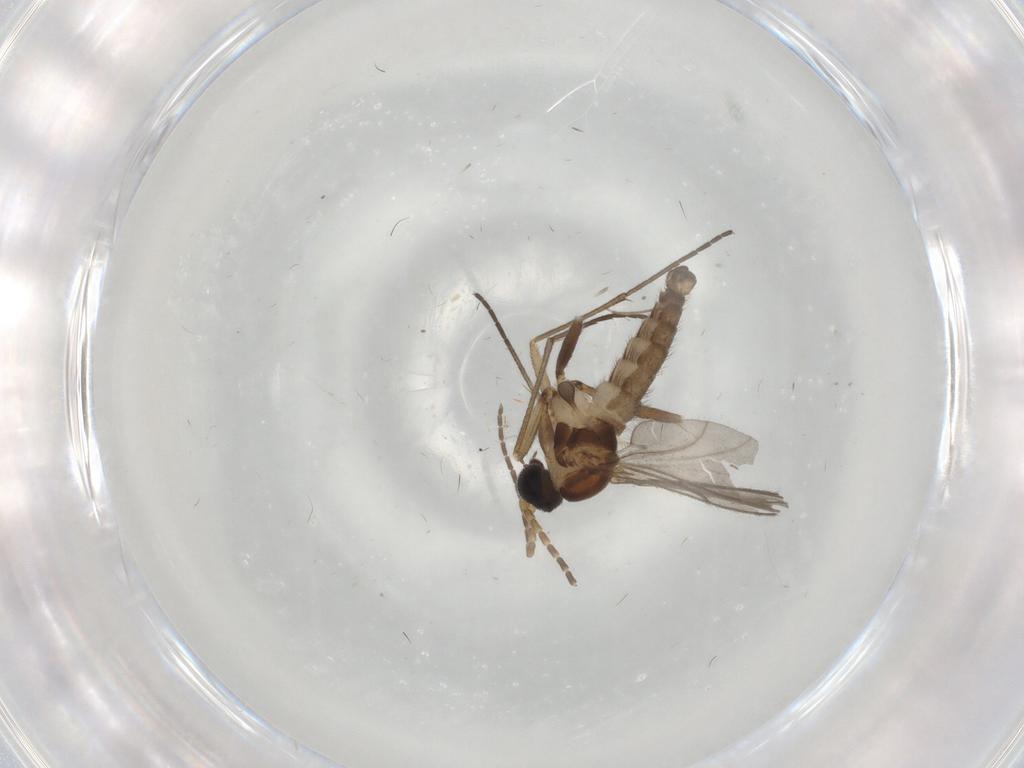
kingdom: Animalia
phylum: Arthropoda
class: Insecta
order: Diptera
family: Sciaridae
